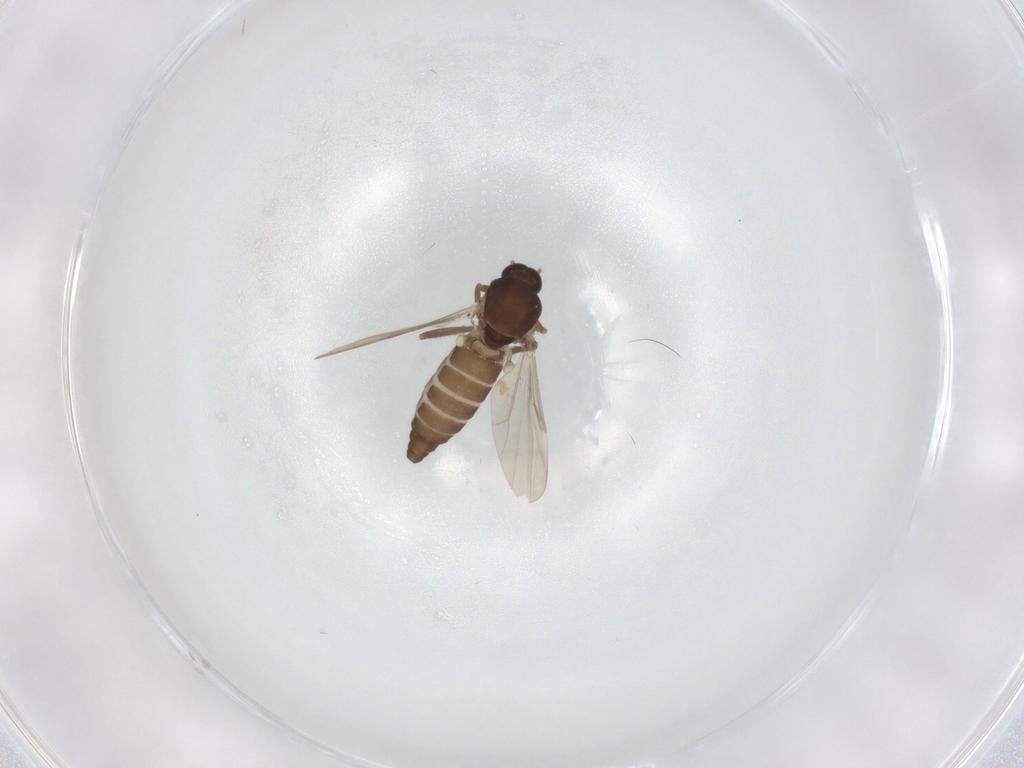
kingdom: Animalia
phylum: Arthropoda
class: Insecta
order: Diptera
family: Ceratopogonidae
